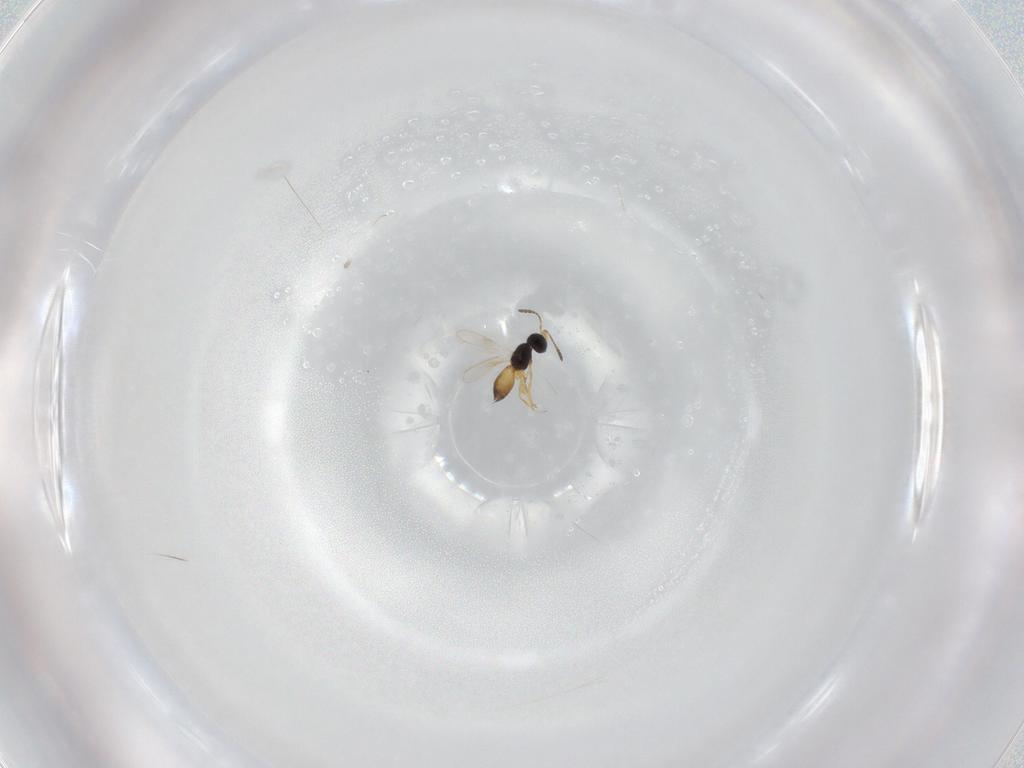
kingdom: Animalia
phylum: Arthropoda
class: Insecta
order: Hymenoptera
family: Scelionidae
